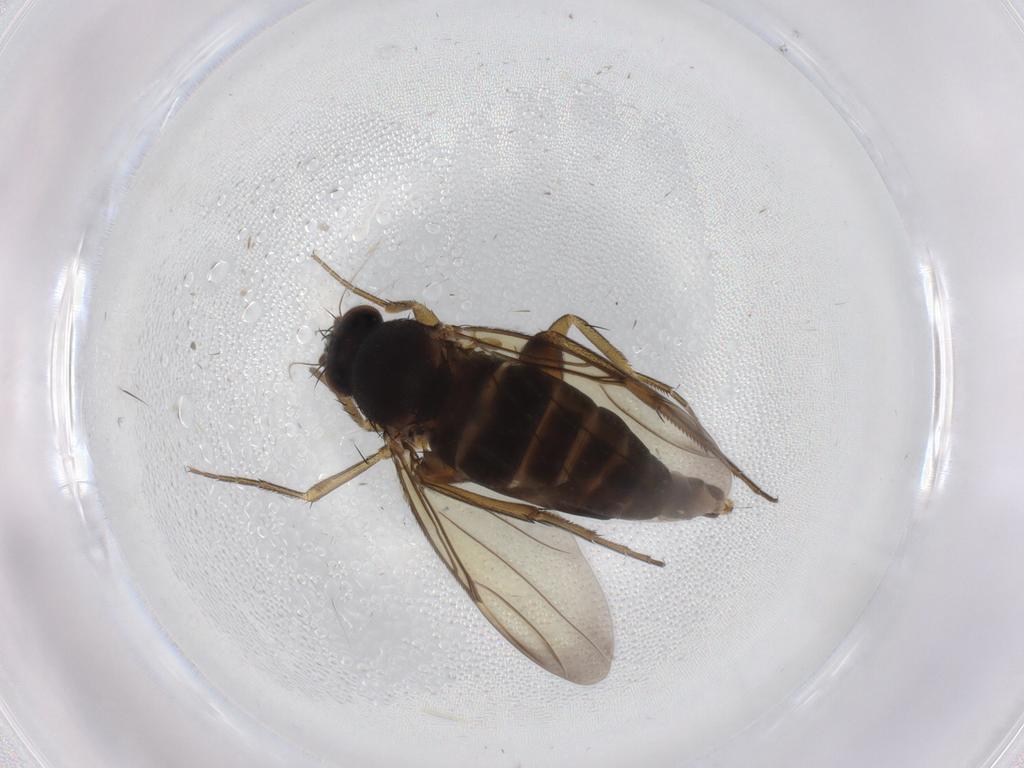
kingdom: Animalia
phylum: Arthropoda
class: Insecta
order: Diptera
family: Phoridae
